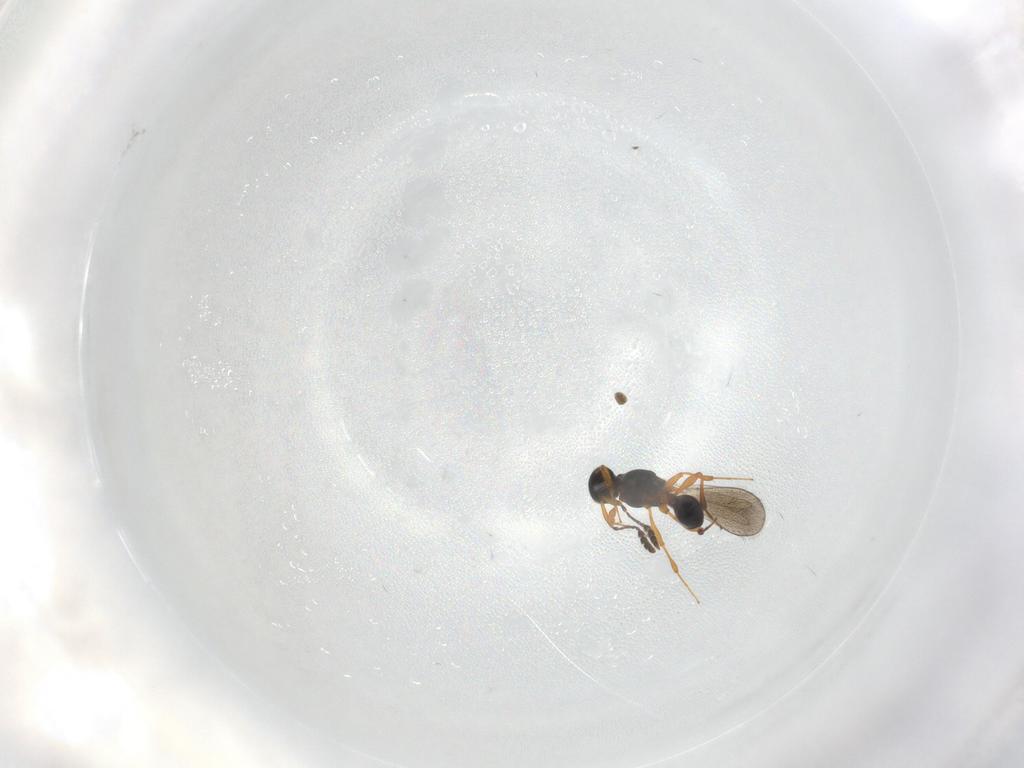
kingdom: Animalia
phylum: Arthropoda
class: Insecta
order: Hymenoptera
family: Platygastridae
